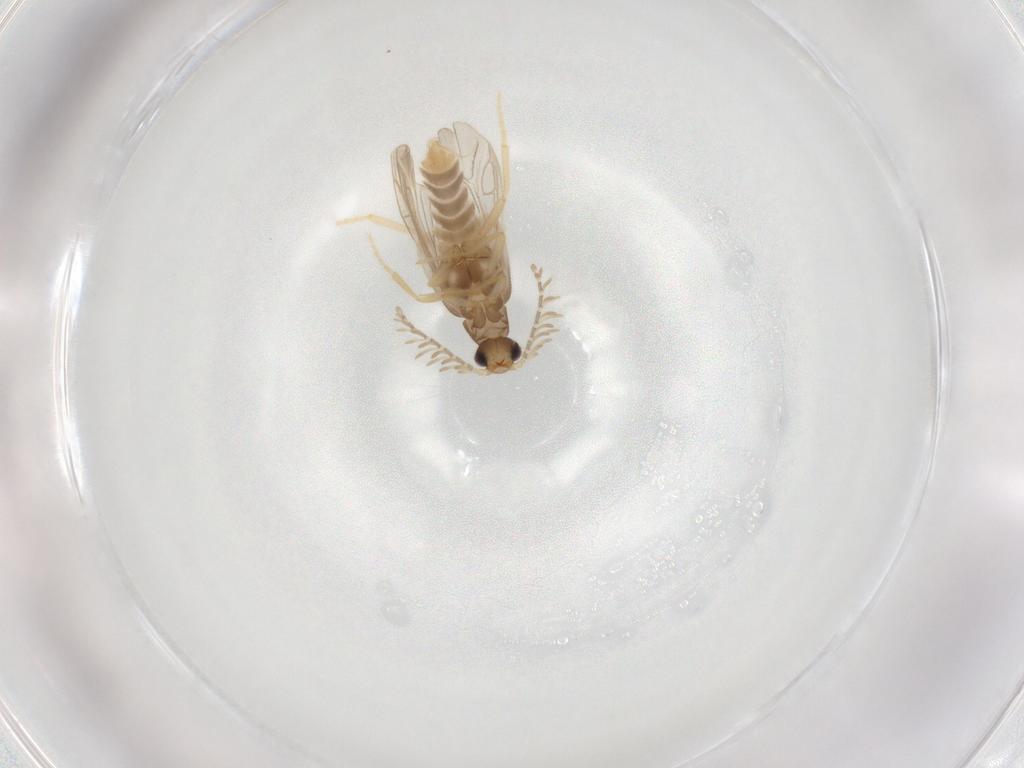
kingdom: Animalia
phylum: Arthropoda
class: Insecta
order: Coleoptera
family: Phengodidae
